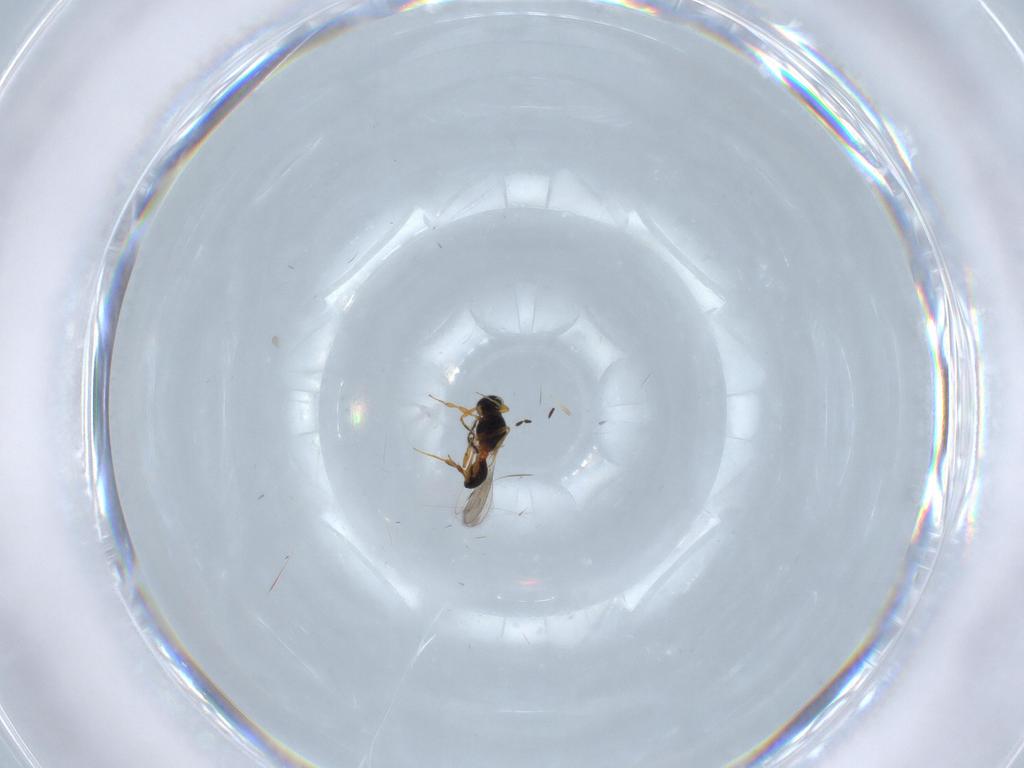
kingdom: Animalia
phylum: Arthropoda
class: Insecta
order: Hymenoptera
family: Platygastridae
